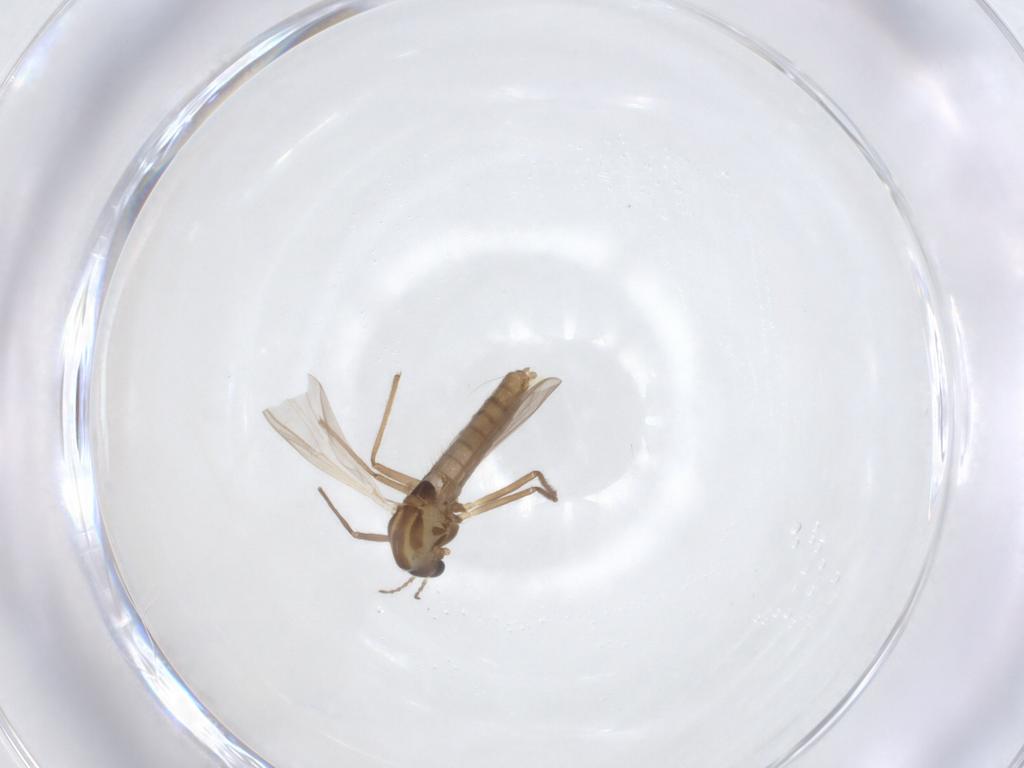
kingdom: Animalia
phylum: Arthropoda
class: Insecta
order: Diptera
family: Chironomidae
